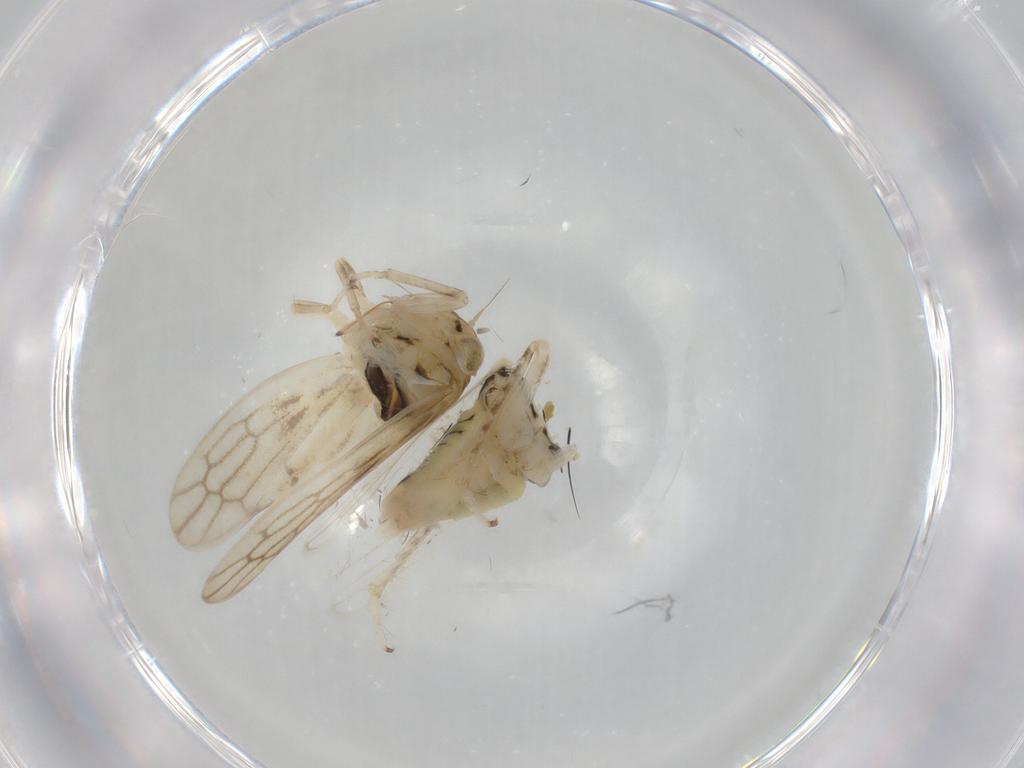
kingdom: Animalia
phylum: Arthropoda
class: Insecta
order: Hemiptera
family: Cicadellidae
